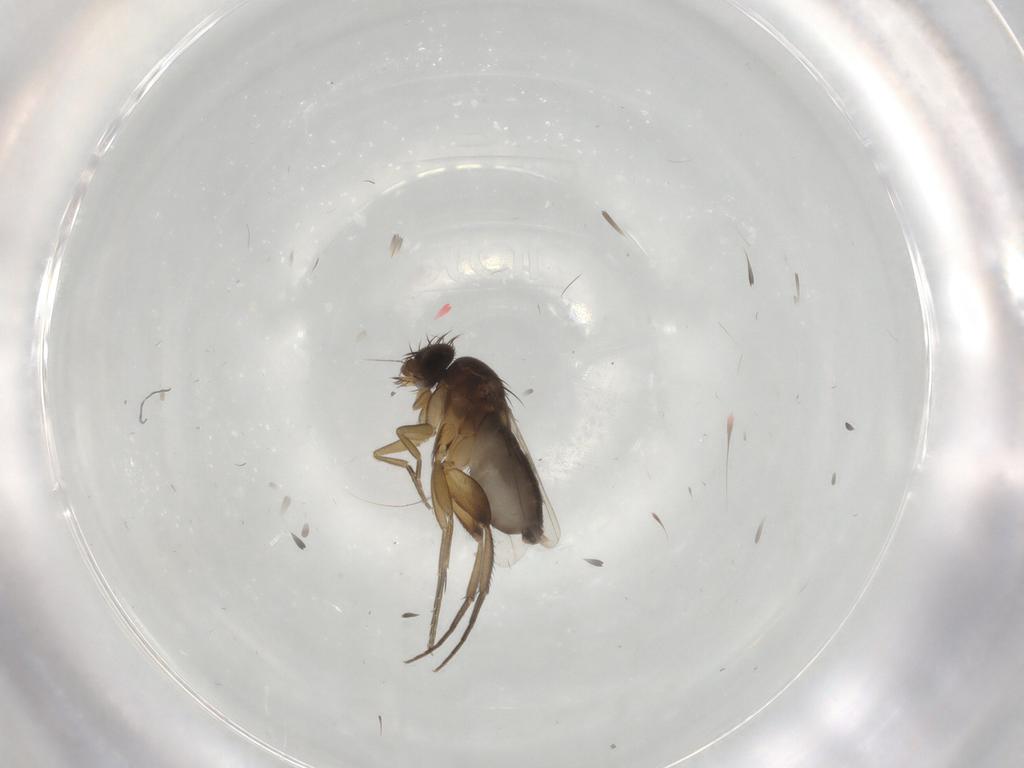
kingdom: Animalia
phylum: Arthropoda
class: Insecta
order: Diptera
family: Phoridae
